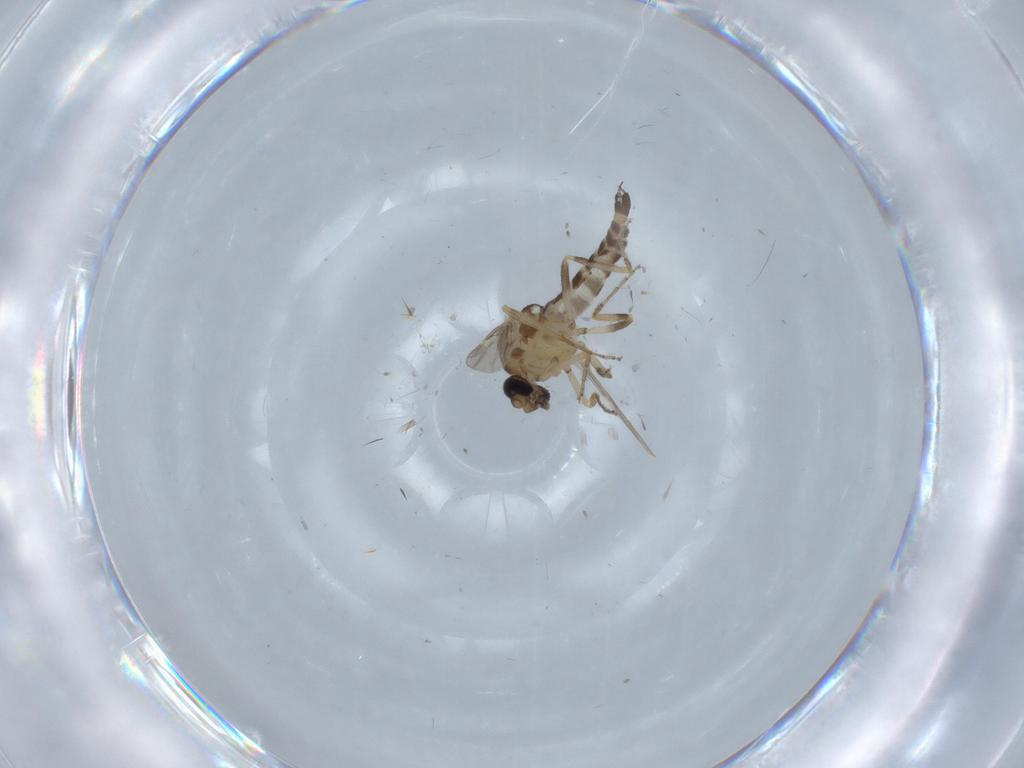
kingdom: Animalia
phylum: Arthropoda
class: Insecta
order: Diptera
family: Ceratopogonidae
